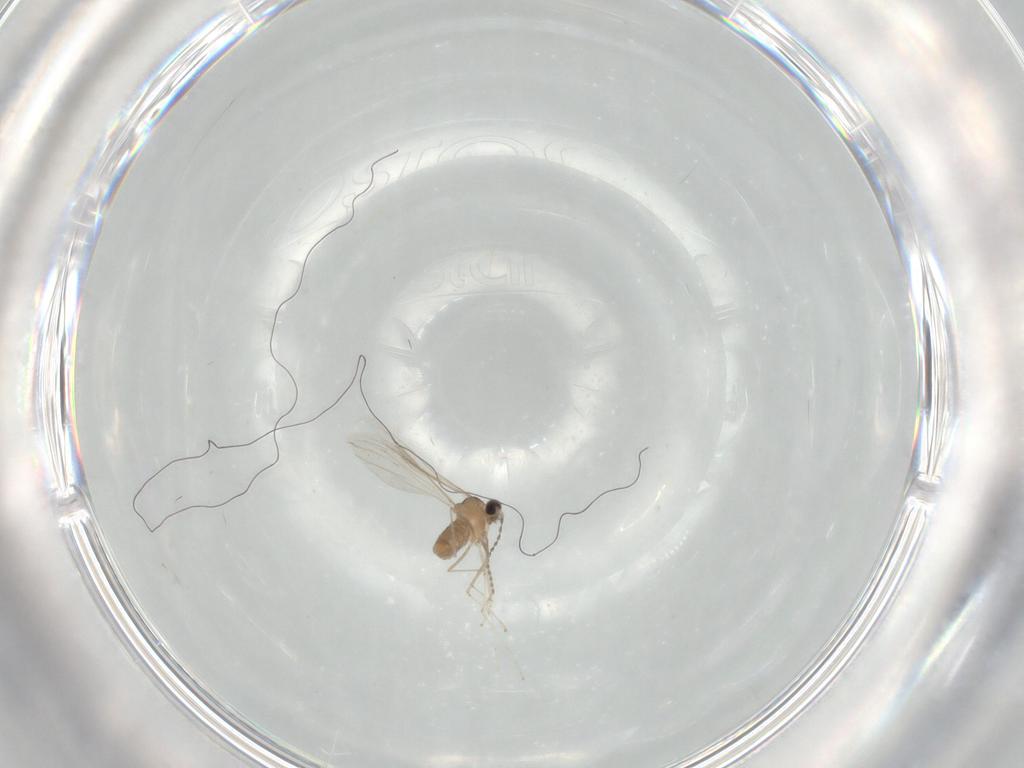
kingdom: Animalia
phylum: Arthropoda
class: Insecta
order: Diptera
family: Cecidomyiidae
